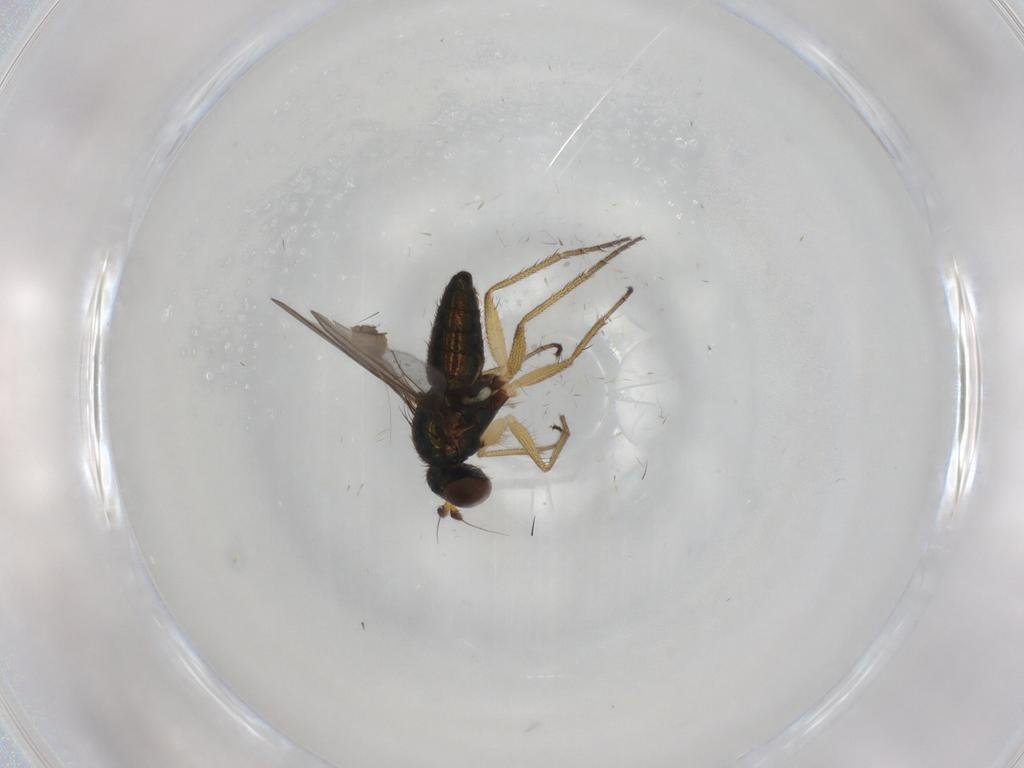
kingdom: Animalia
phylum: Arthropoda
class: Insecta
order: Diptera
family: Dolichopodidae
